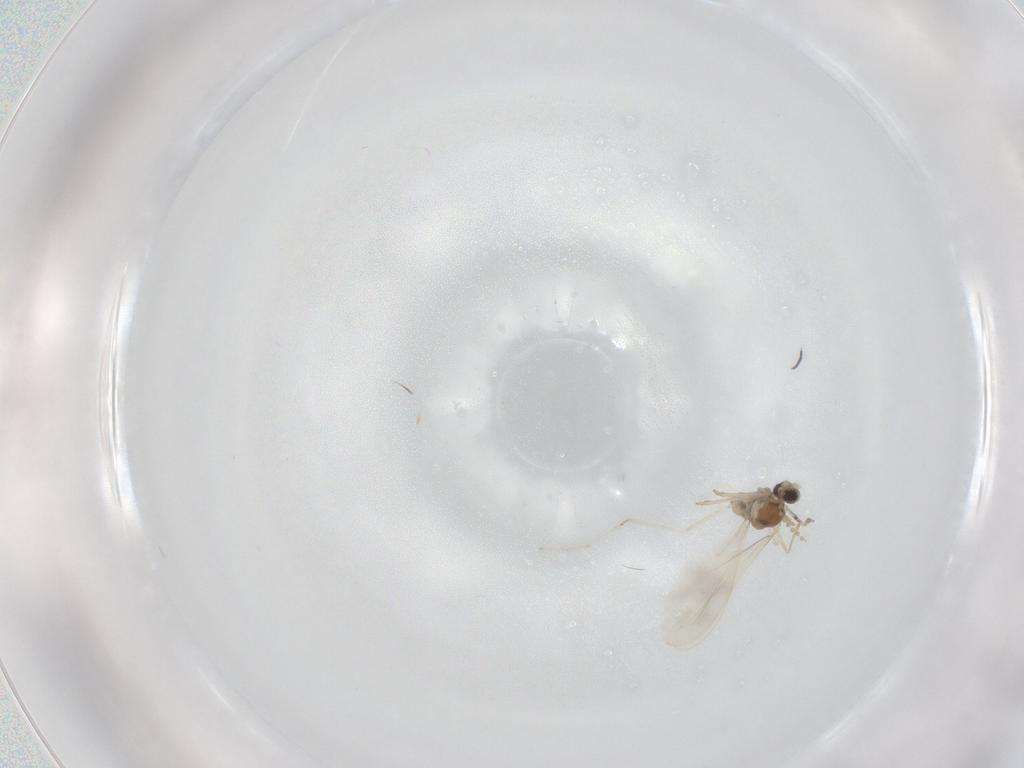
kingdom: Animalia
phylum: Arthropoda
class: Insecta
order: Diptera
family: Cecidomyiidae
